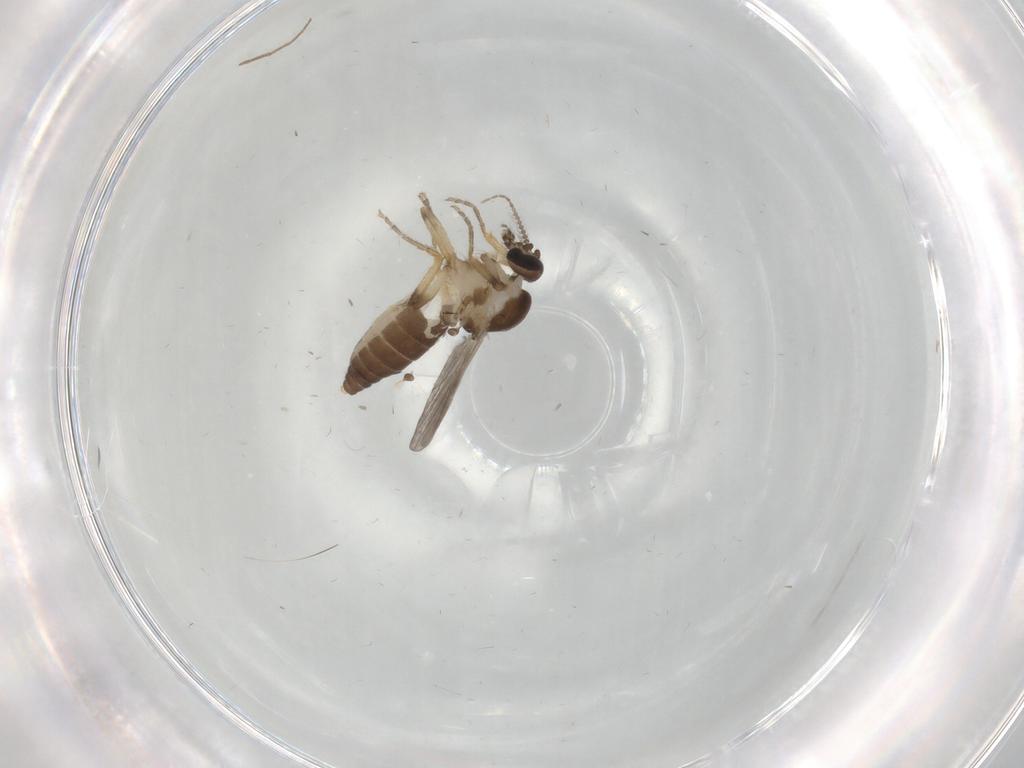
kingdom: Animalia
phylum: Arthropoda
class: Insecta
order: Diptera
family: Ceratopogonidae
